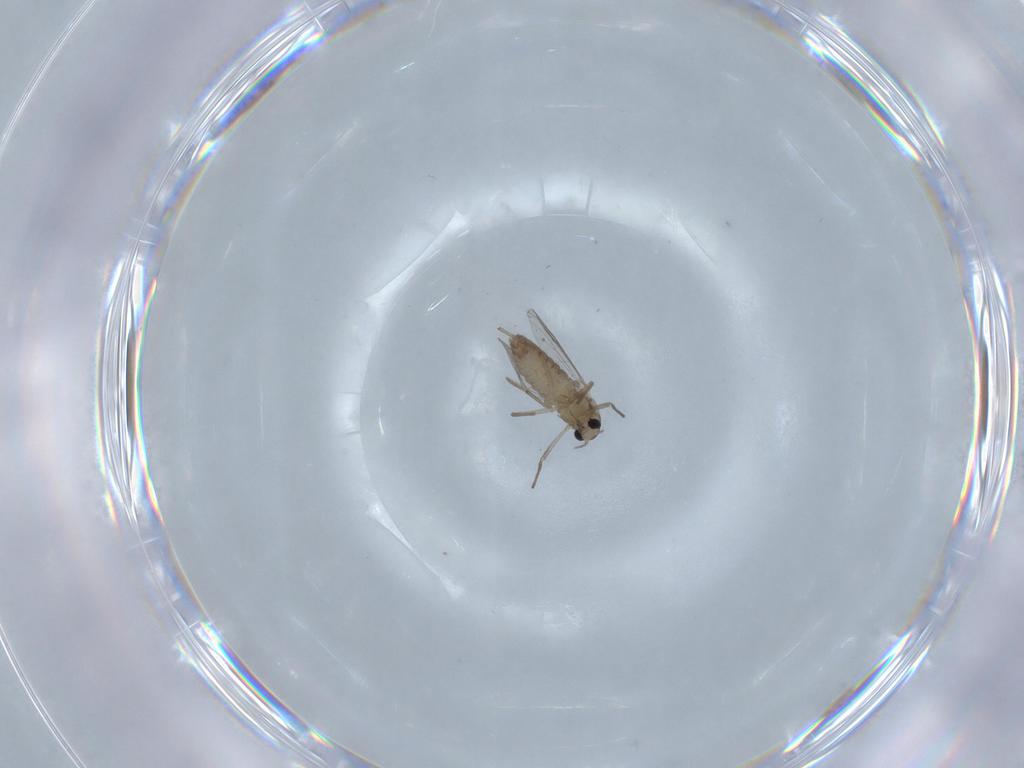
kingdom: Animalia
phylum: Arthropoda
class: Insecta
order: Diptera
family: Chironomidae
